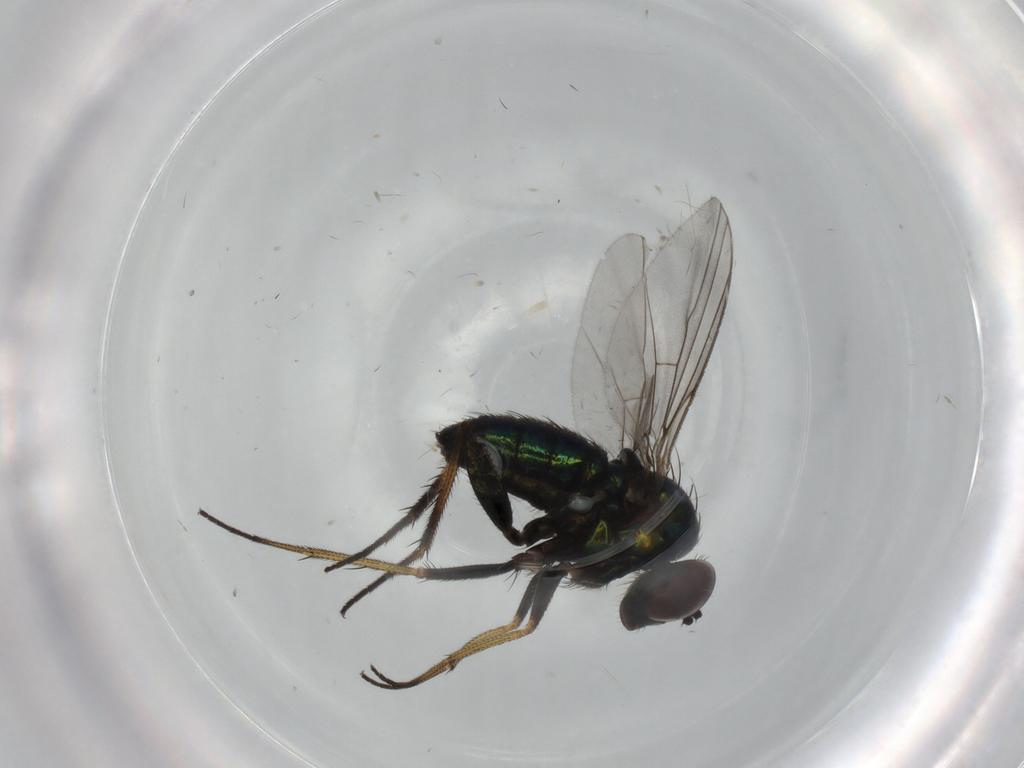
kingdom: Animalia
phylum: Arthropoda
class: Insecta
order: Diptera
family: Dolichopodidae
